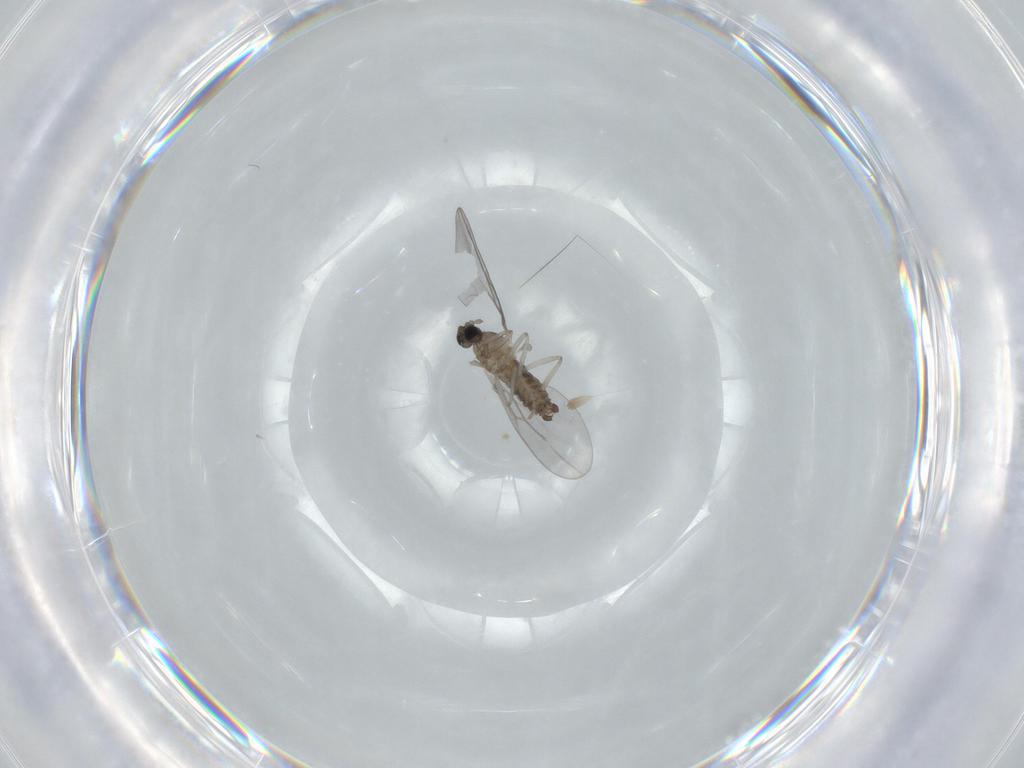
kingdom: Animalia
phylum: Arthropoda
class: Insecta
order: Diptera
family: Cecidomyiidae
